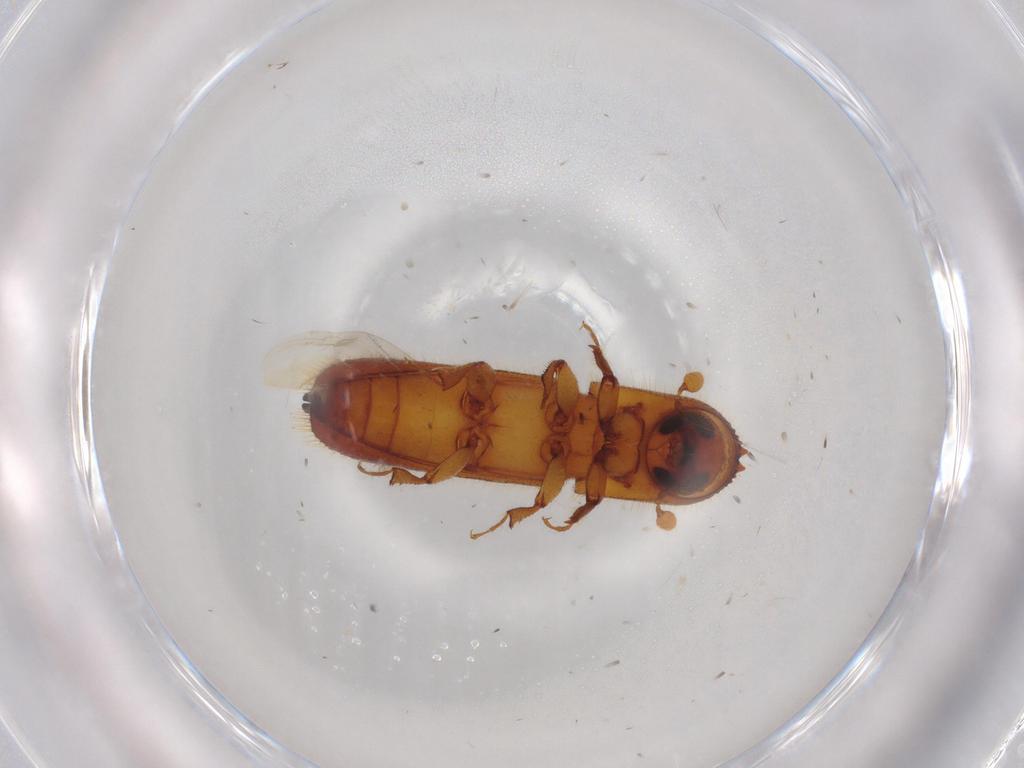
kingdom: Animalia
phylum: Arthropoda
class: Insecta
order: Coleoptera
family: Curculionidae
